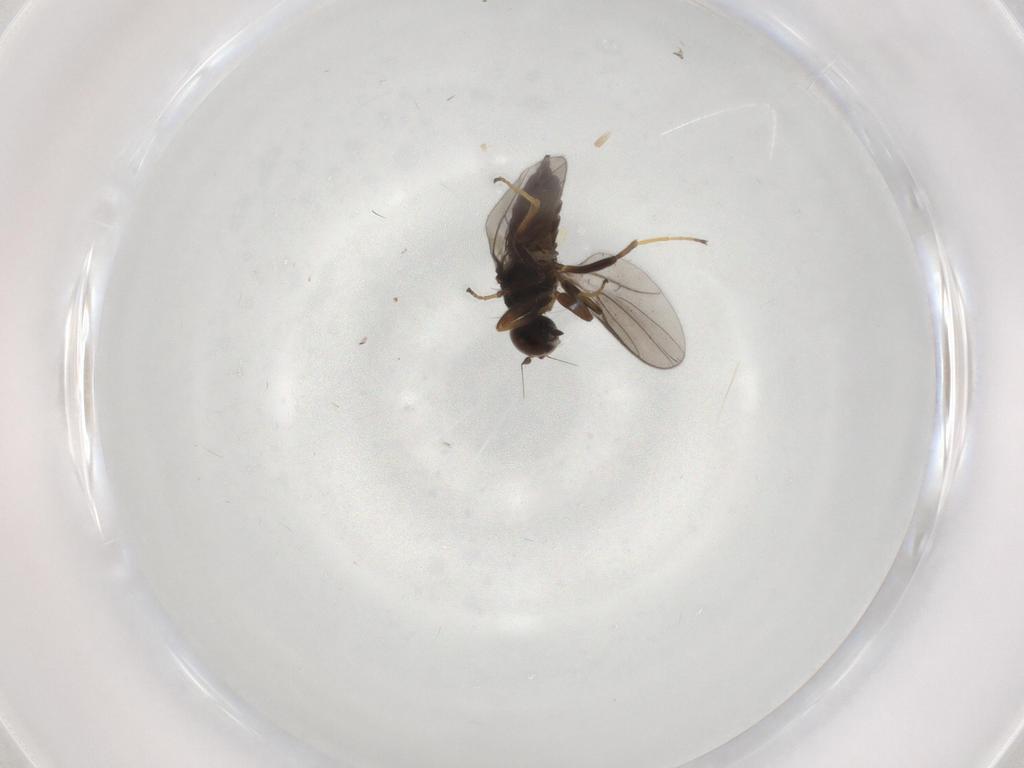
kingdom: Animalia
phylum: Arthropoda
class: Insecta
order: Diptera
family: Hybotidae
